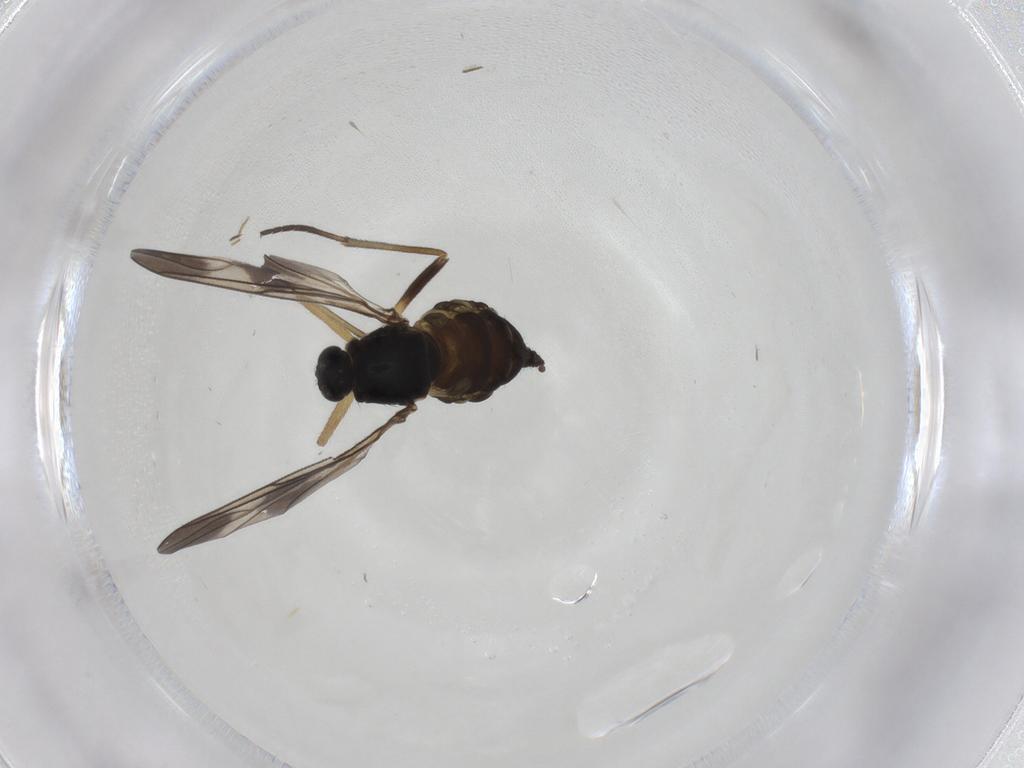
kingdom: Animalia
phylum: Arthropoda
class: Insecta
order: Diptera
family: Sciaridae
